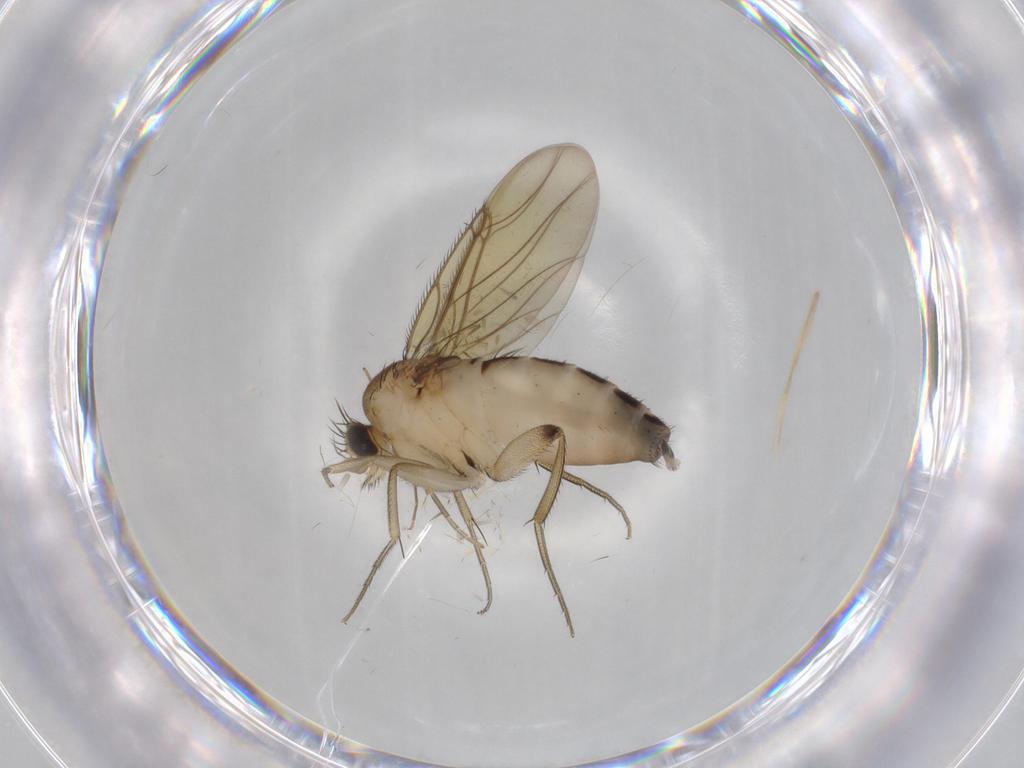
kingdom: Animalia
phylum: Arthropoda
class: Insecta
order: Diptera
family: Phoridae
